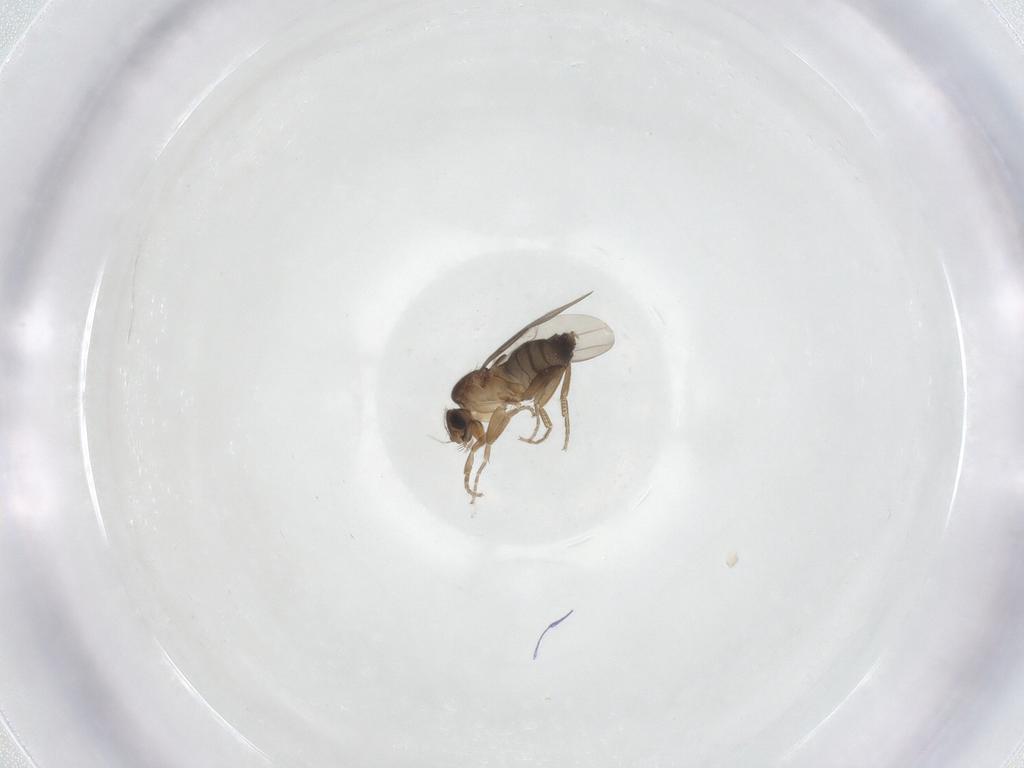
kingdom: Animalia
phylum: Arthropoda
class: Insecta
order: Diptera
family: Phoridae
